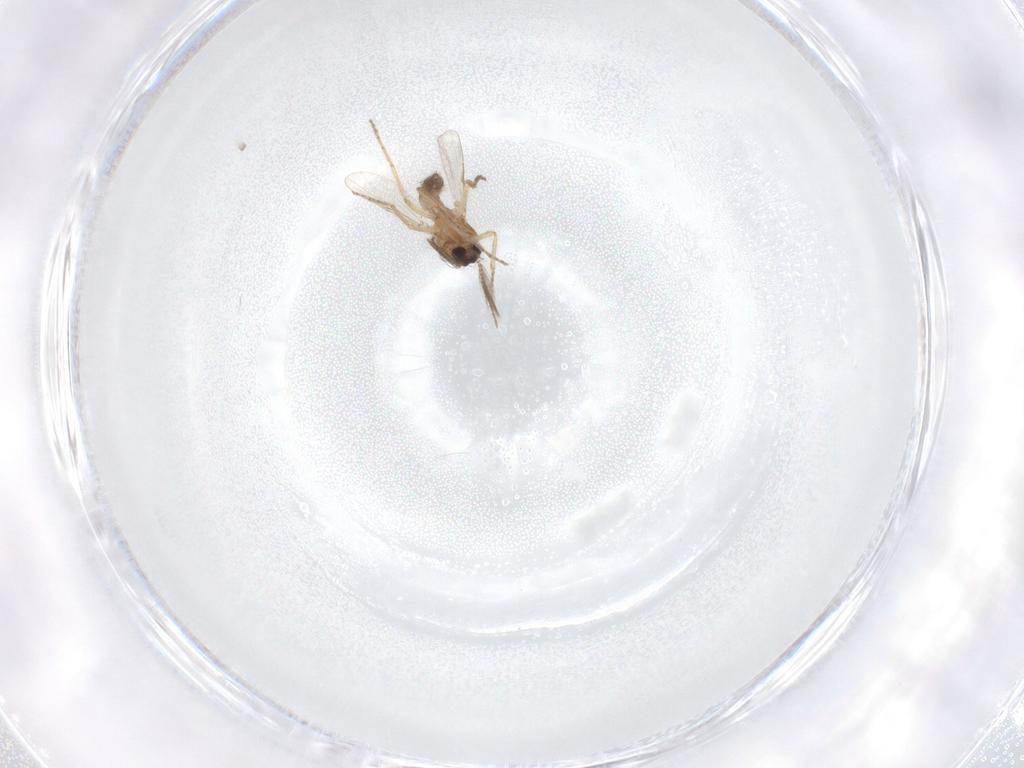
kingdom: Animalia
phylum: Arthropoda
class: Insecta
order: Diptera
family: Ceratopogonidae
